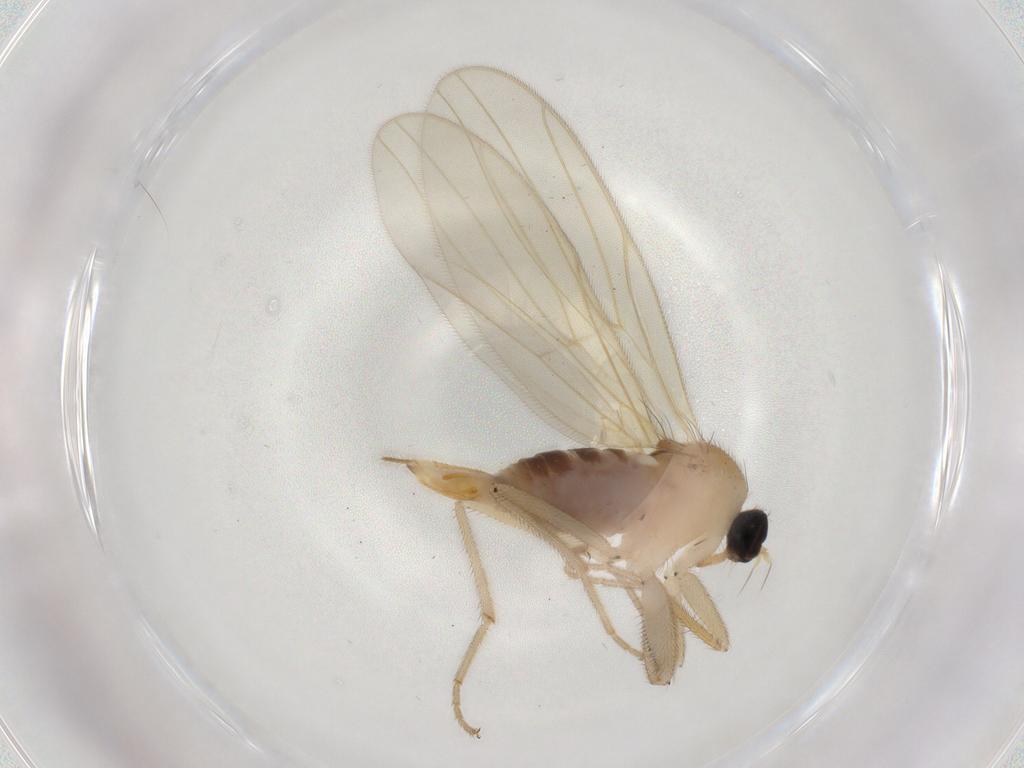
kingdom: Animalia
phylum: Arthropoda
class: Insecta
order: Diptera
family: Hybotidae
